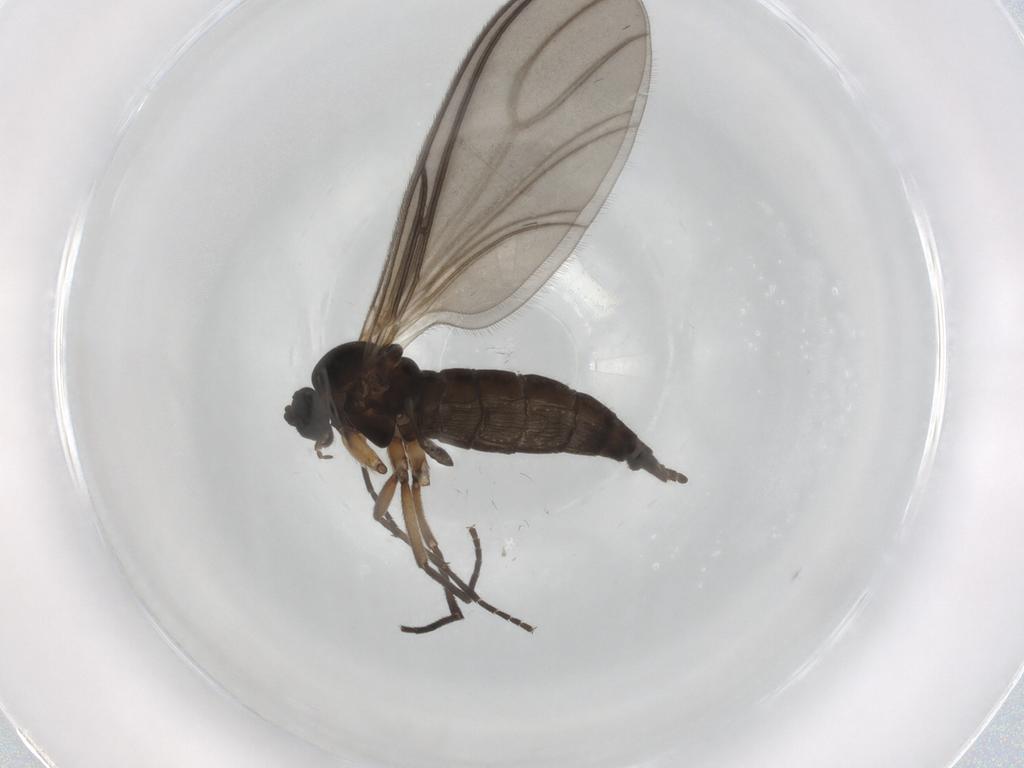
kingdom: Animalia
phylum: Arthropoda
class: Insecta
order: Diptera
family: Sciaridae
